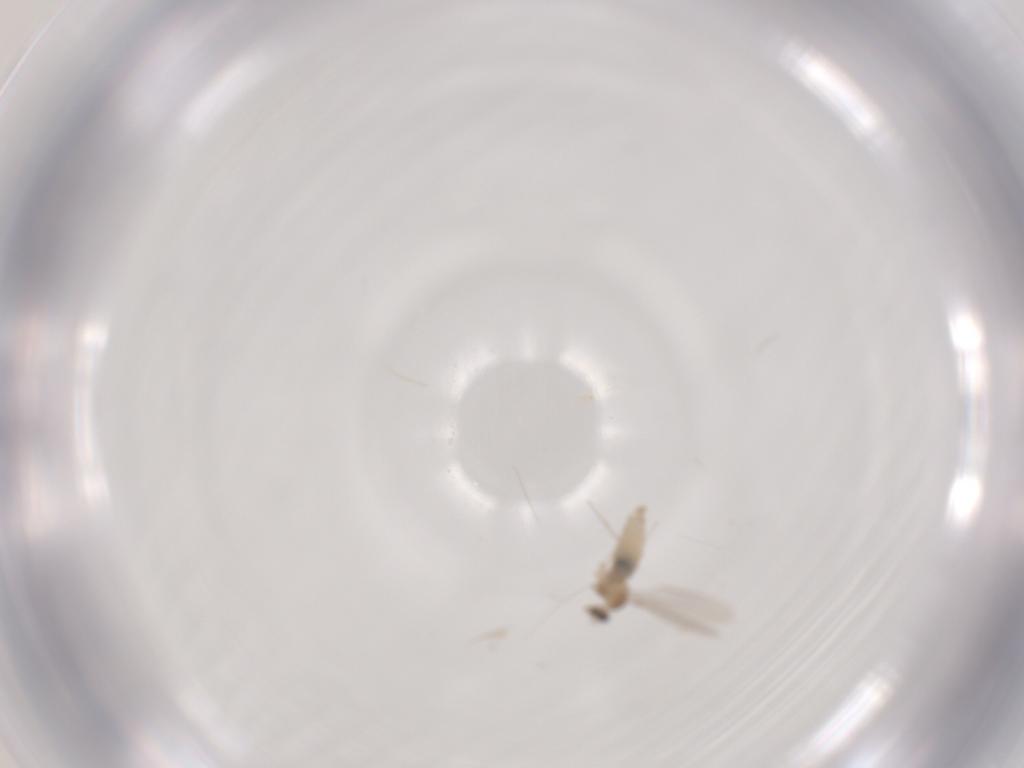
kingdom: Animalia
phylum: Arthropoda
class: Insecta
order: Diptera
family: Cecidomyiidae
